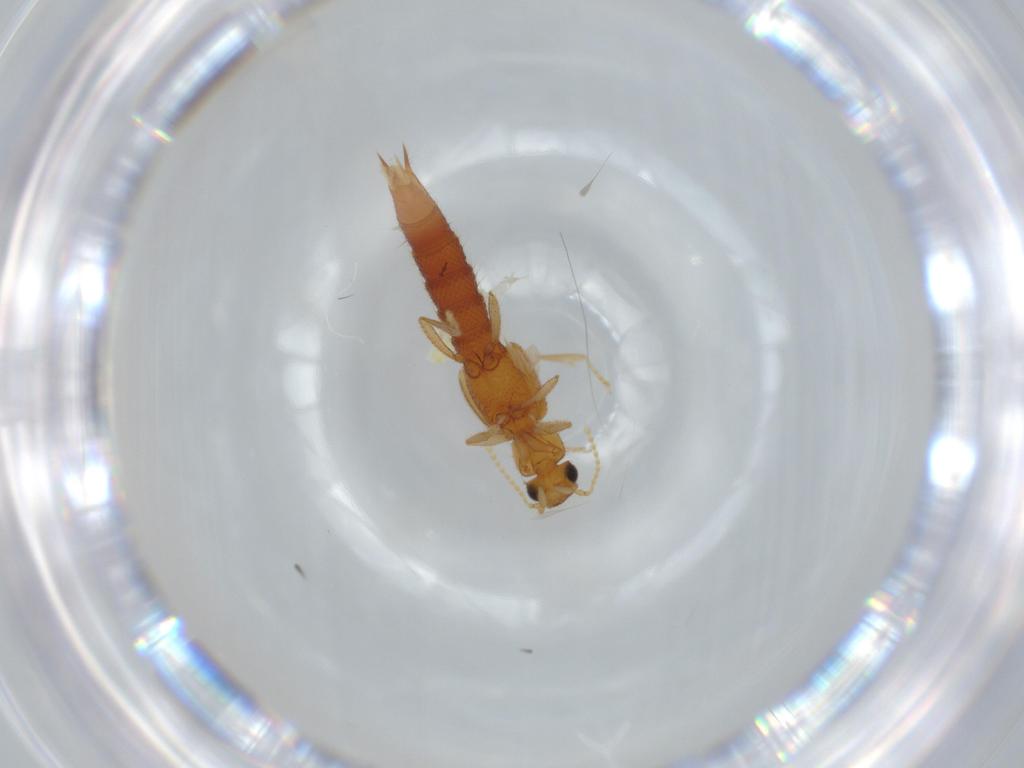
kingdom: Animalia
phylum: Arthropoda
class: Insecta
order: Coleoptera
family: Staphylinidae
